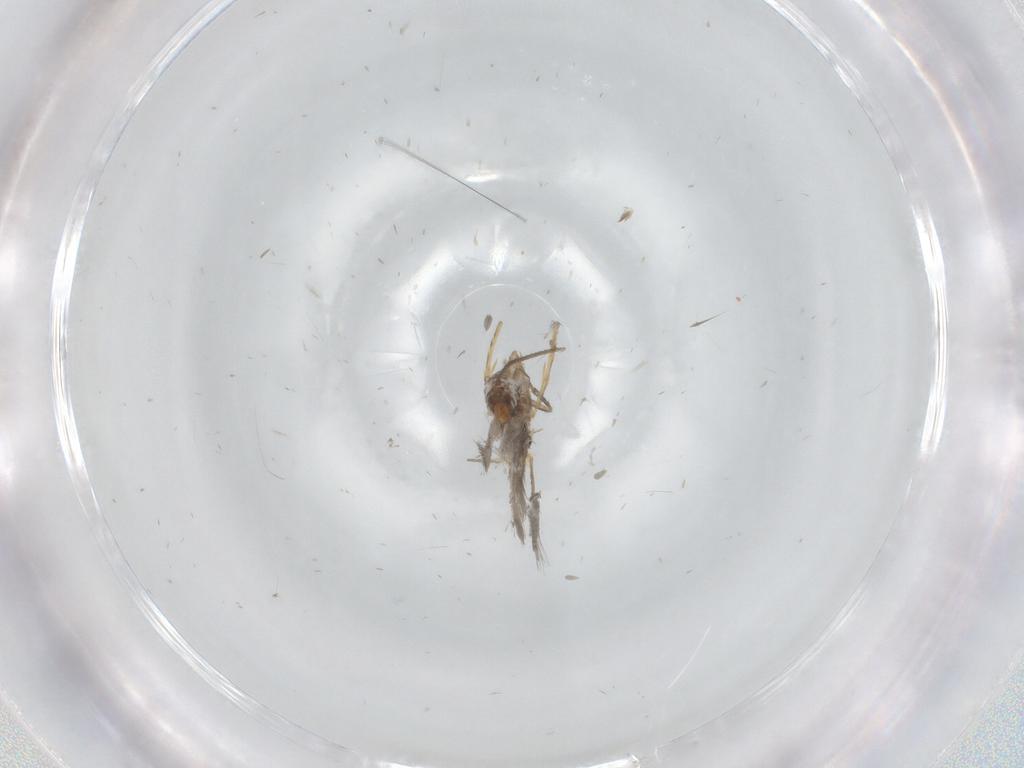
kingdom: Animalia
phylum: Arthropoda
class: Insecta
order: Lepidoptera
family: Nepticulidae
